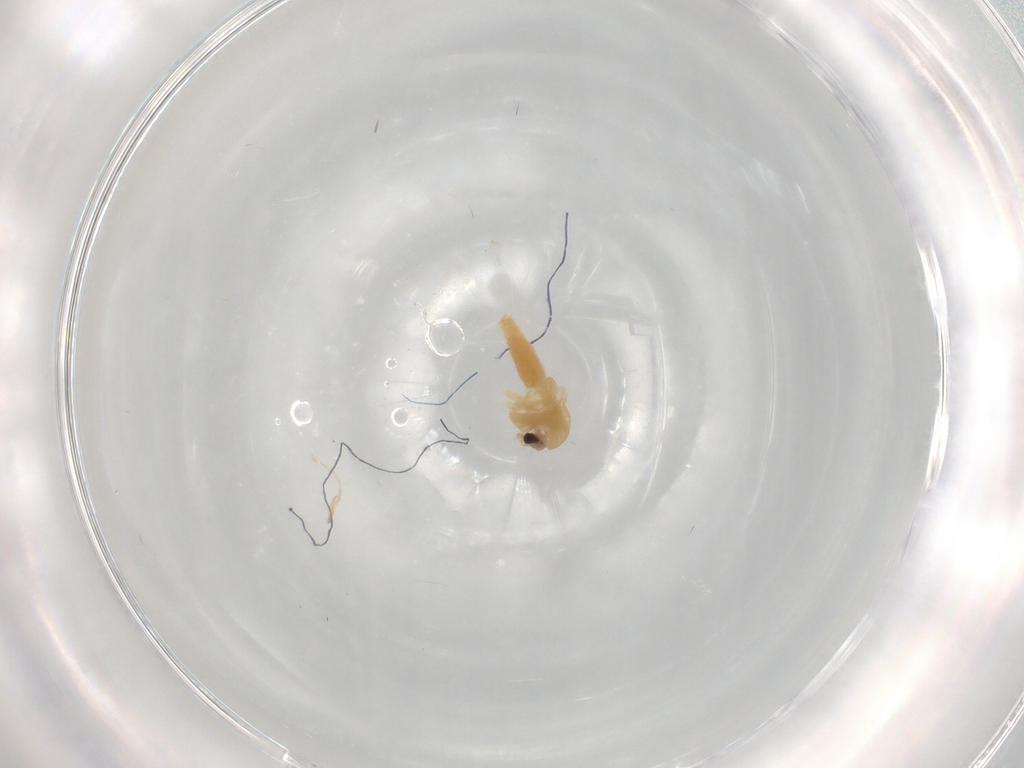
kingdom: Animalia
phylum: Arthropoda
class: Insecta
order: Diptera
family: Chironomidae
